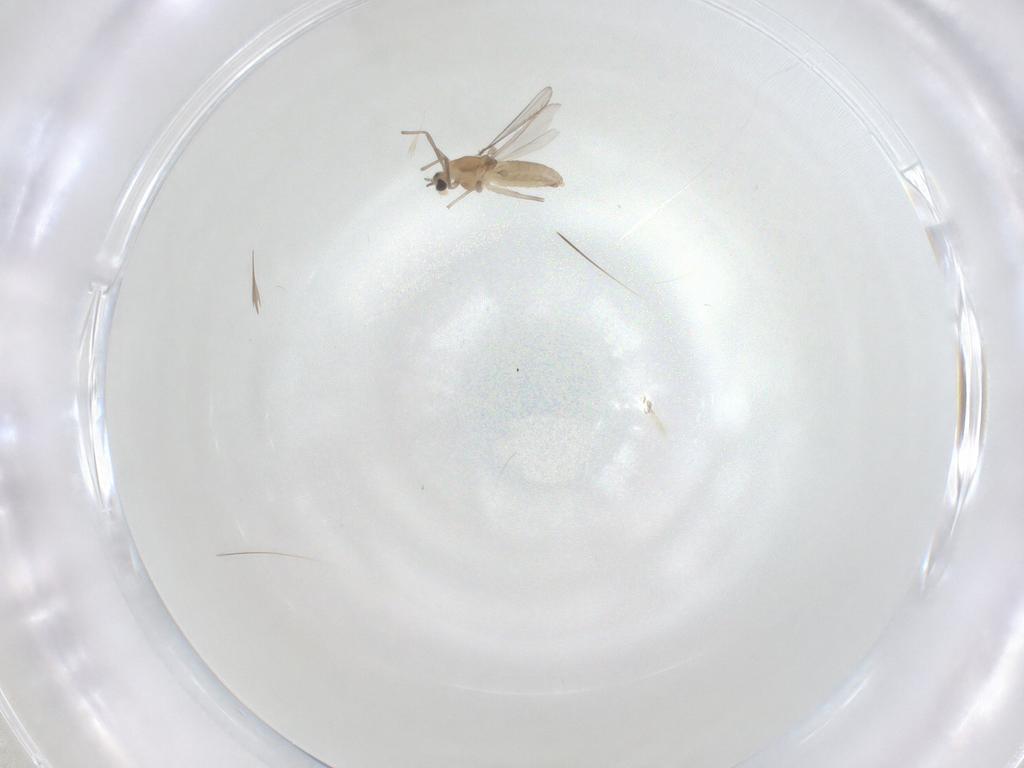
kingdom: Animalia
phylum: Arthropoda
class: Insecta
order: Diptera
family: Chironomidae
